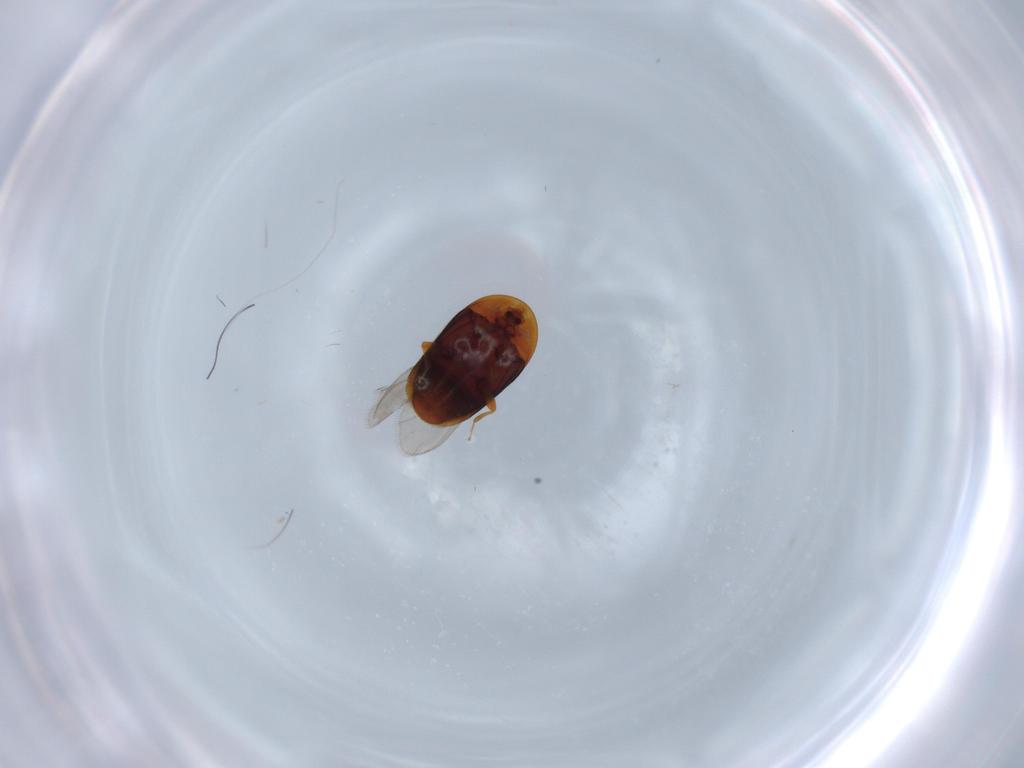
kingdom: Animalia
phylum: Arthropoda
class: Insecta
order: Coleoptera
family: Corylophidae
